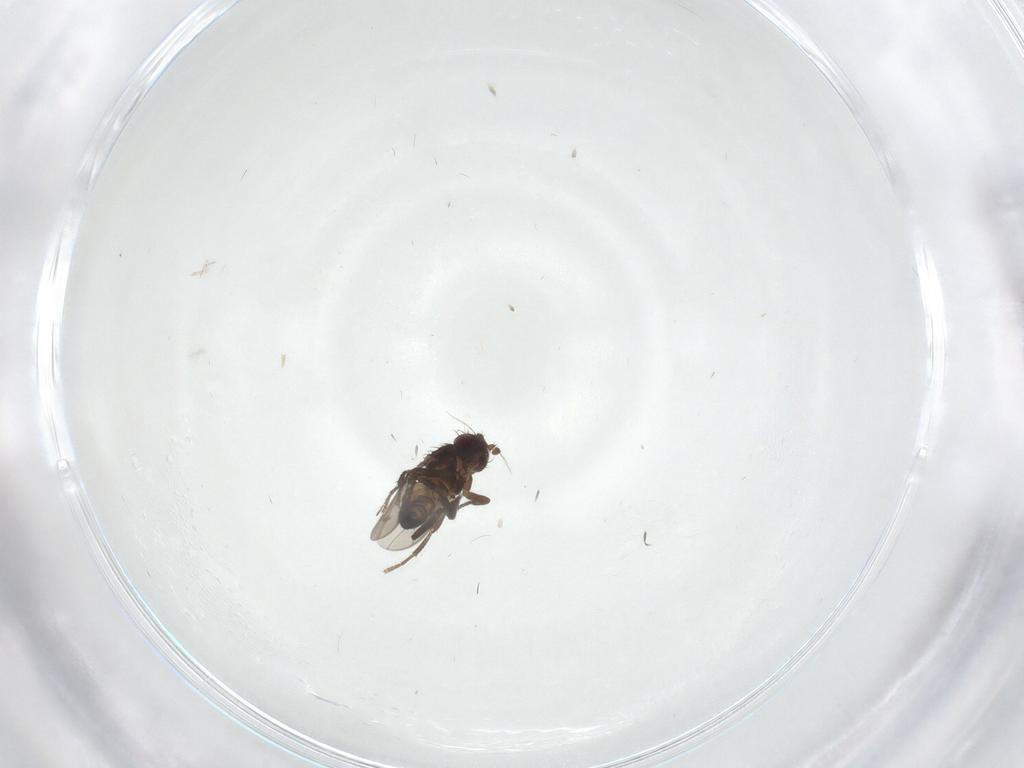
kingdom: Animalia
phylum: Arthropoda
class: Insecta
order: Diptera
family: Sphaeroceridae
